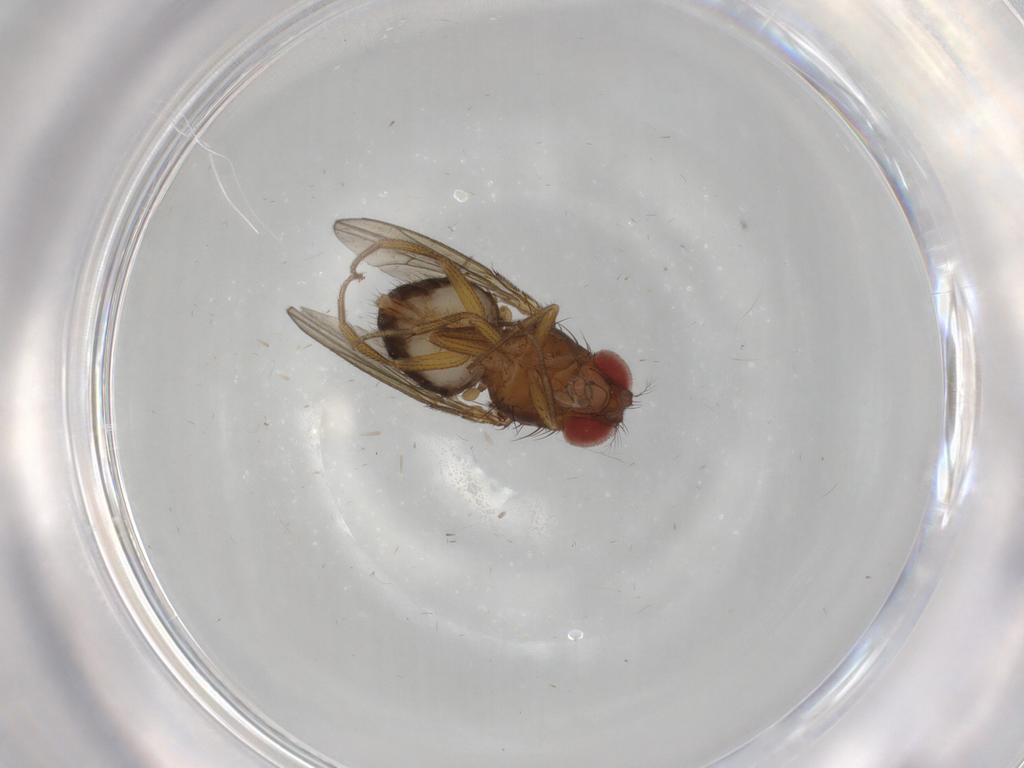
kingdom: Animalia
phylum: Arthropoda
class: Insecta
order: Diptera
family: Drosophilidae
